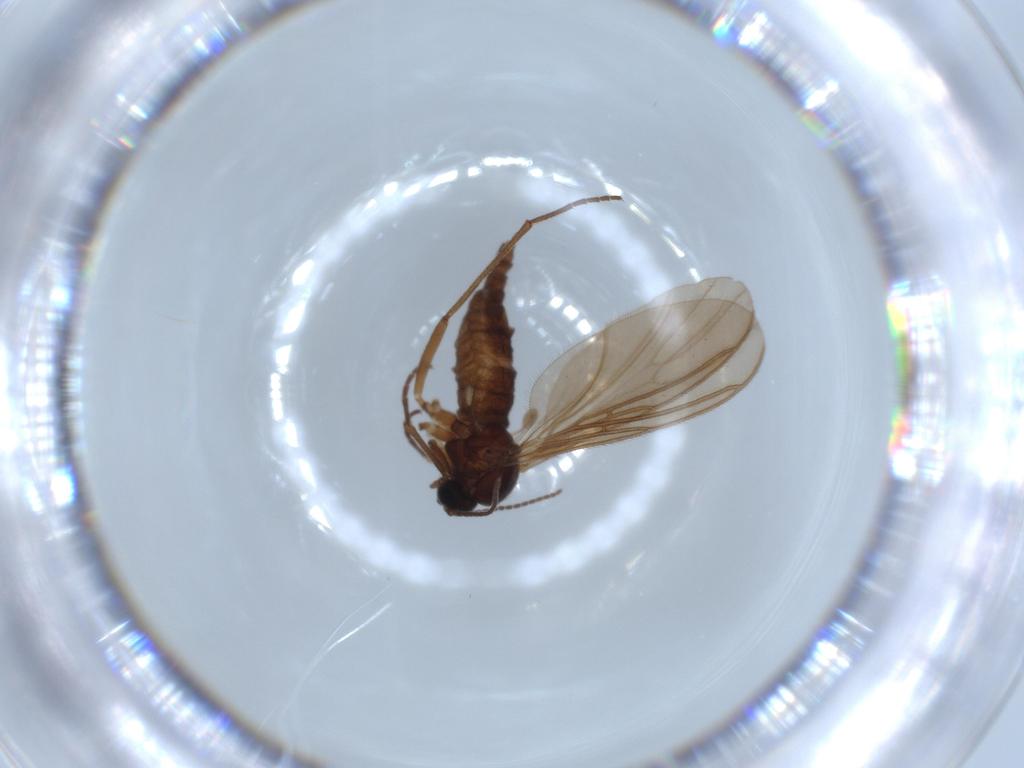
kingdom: Animalia
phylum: Arthropoda
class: Insecta
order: Diptera
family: Sciaridae
